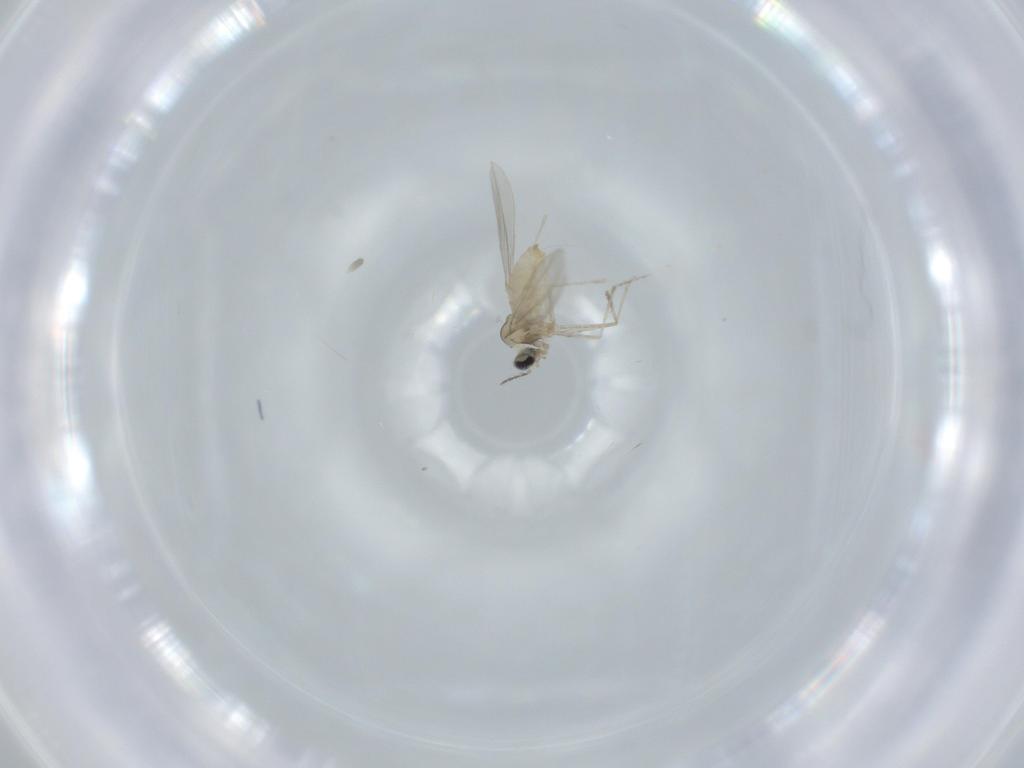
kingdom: Animalia
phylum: Arthropoda
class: Insecta
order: Diptera
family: Cecidomyiidae
